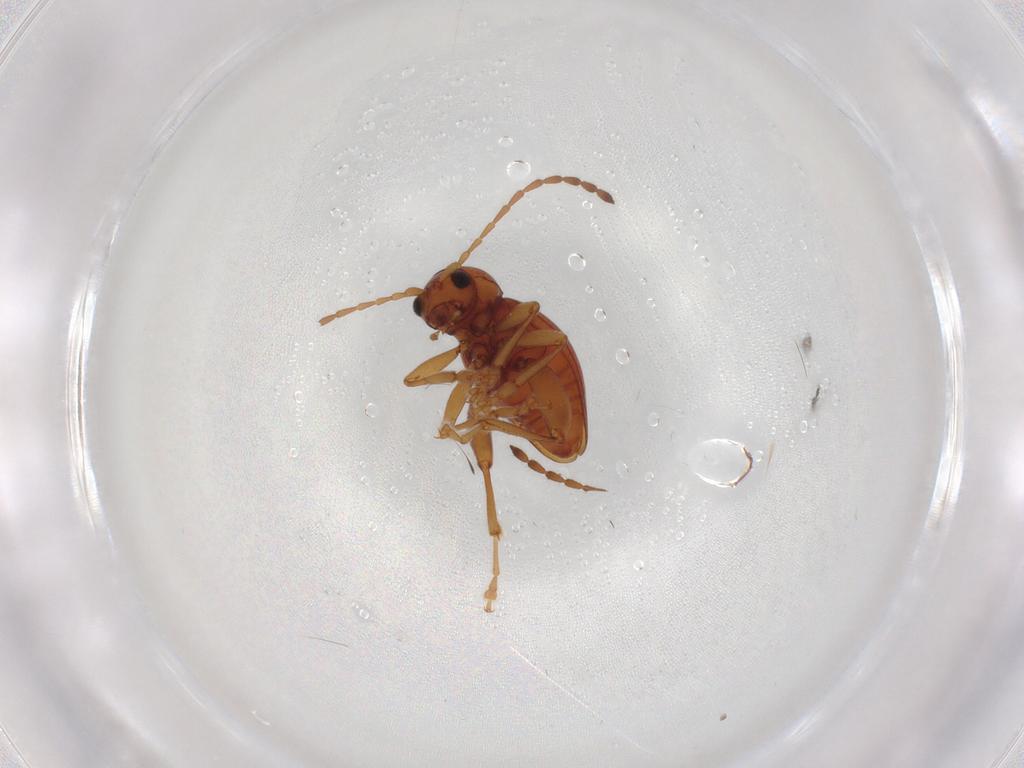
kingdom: Animalia
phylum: Arthropoda
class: Insecta
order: Coleoptera
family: Chrysomelidae
